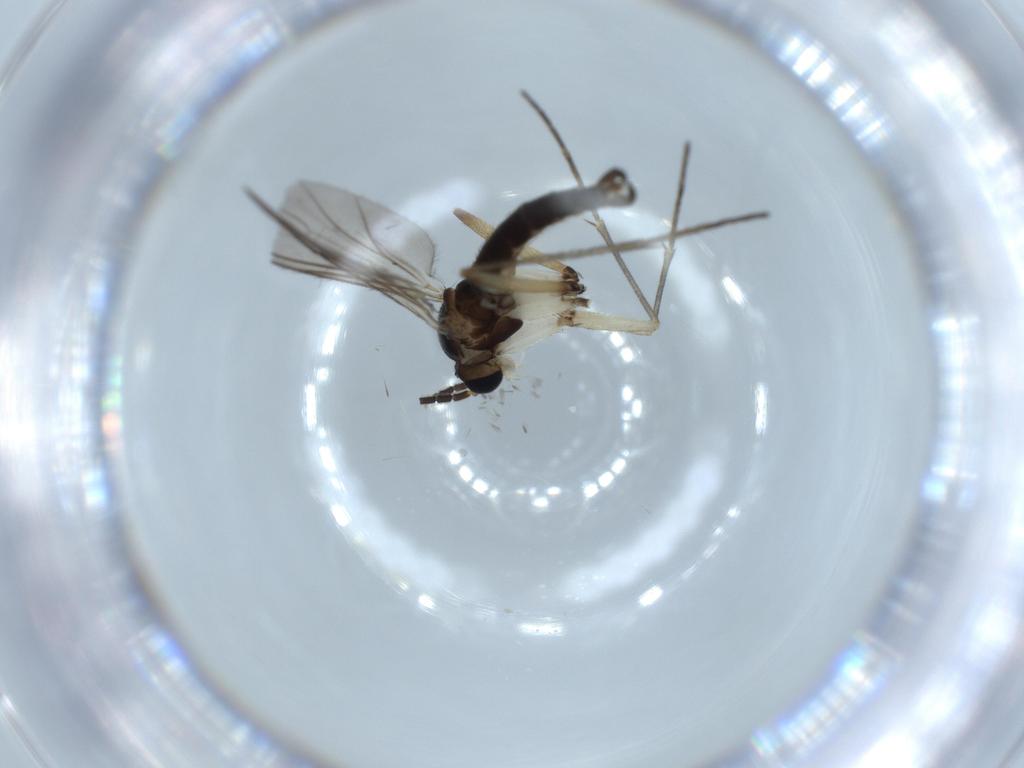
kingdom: Animalia
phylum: Arthropoda
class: Insecta
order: Diptera
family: Sciaridae
